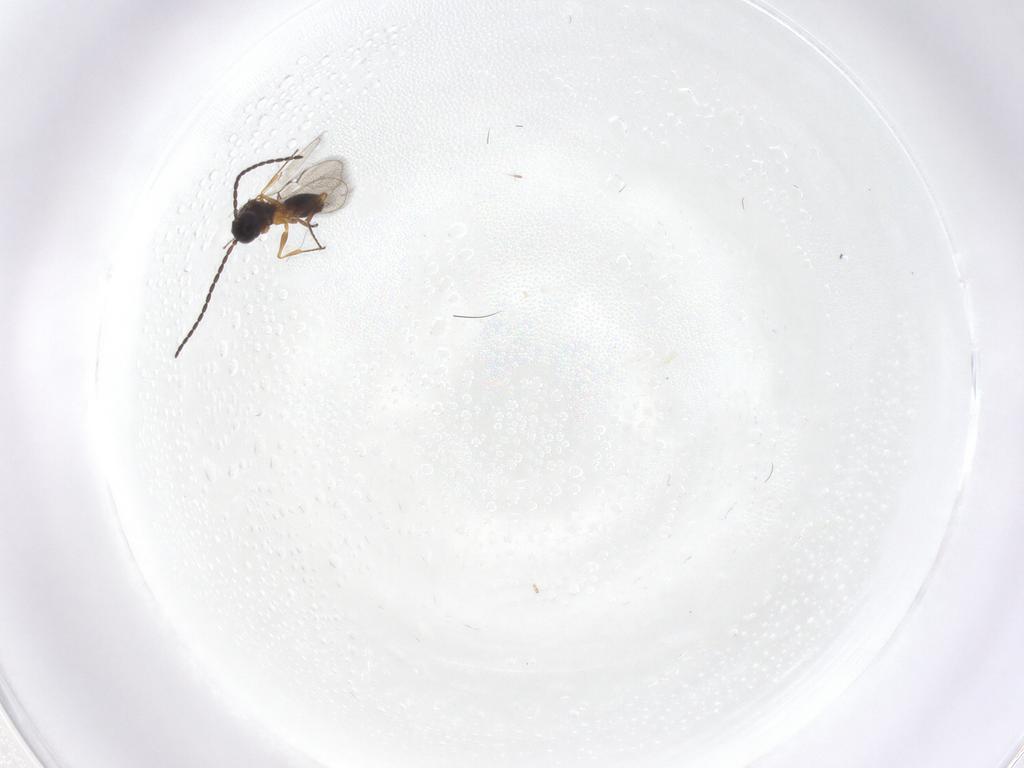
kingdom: Animalia
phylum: Arthropoda
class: Insecta
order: Hymenoptera
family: Figitidae
